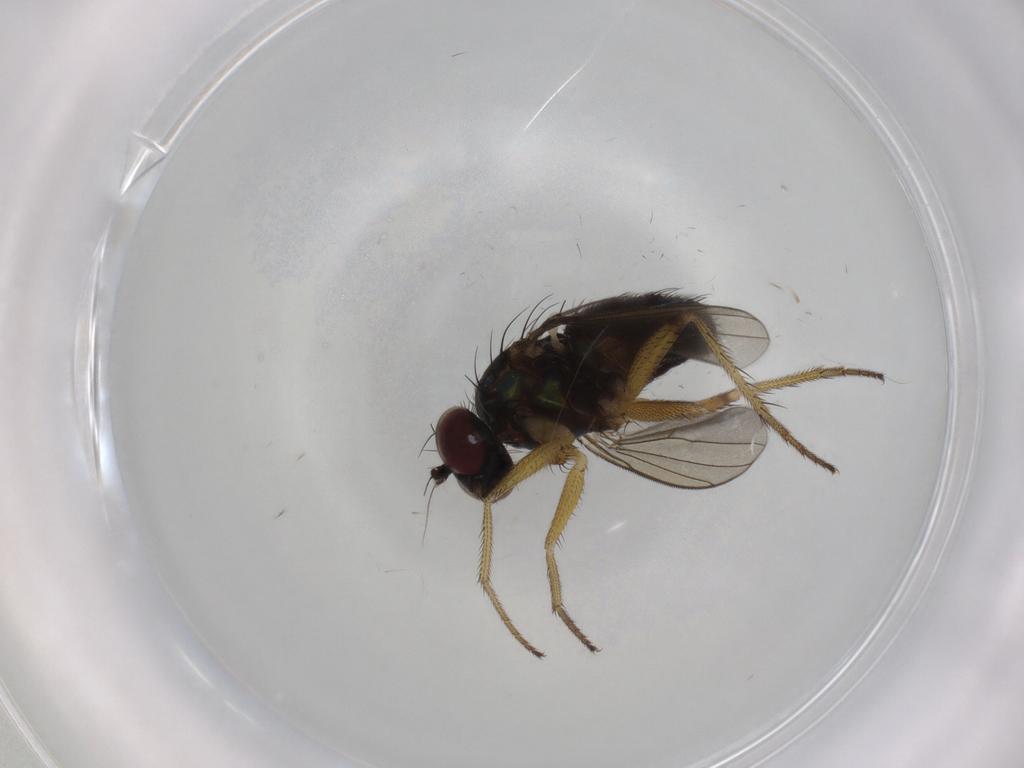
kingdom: Animalia
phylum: Arthropoda
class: Insecta
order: Diptera
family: Dolichopodidae
